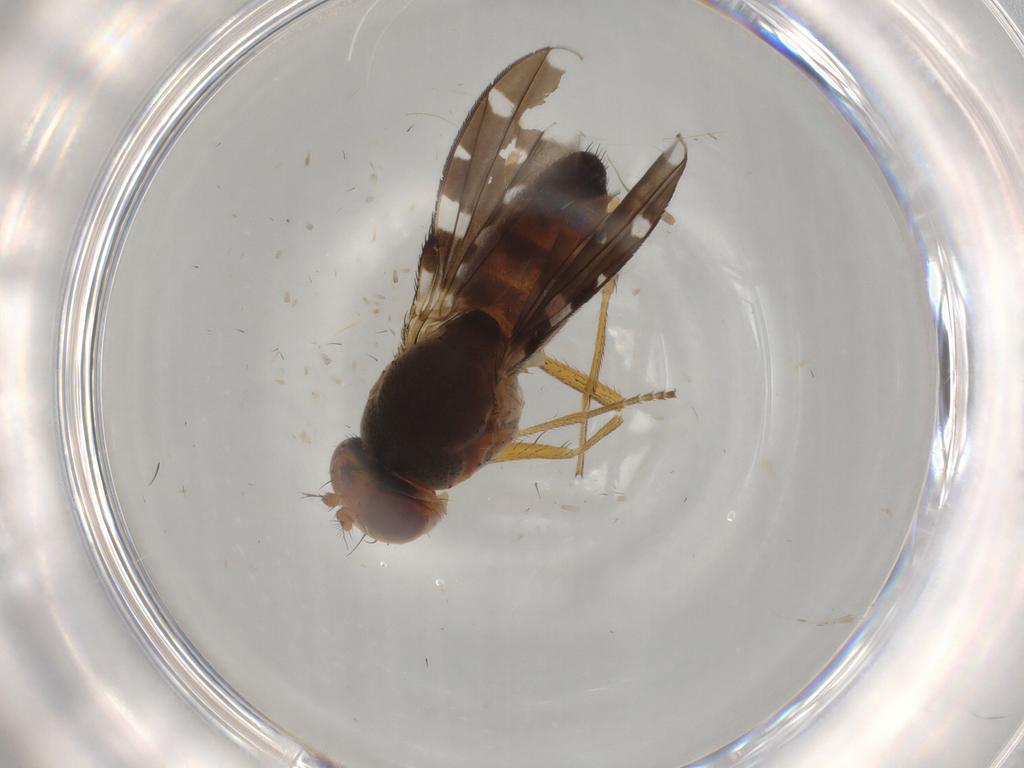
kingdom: Animalia
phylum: Arthropoda
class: Insecta
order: Diptera
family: Ephydridae
